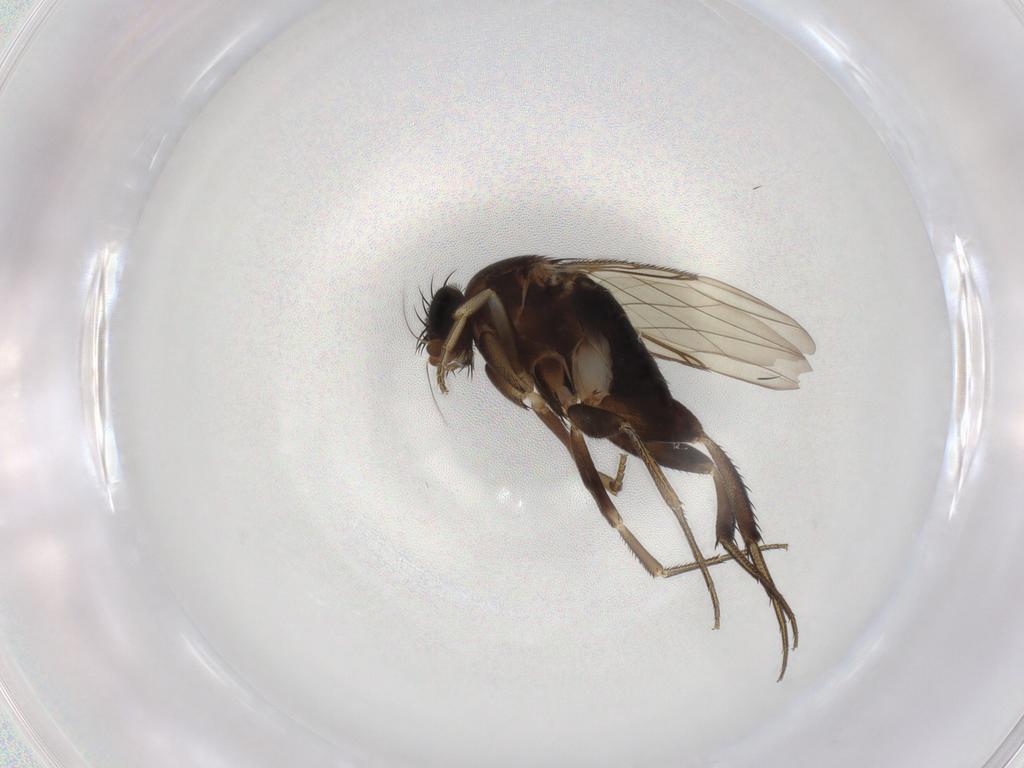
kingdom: Animalia
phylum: Arthropoda
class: Insecta
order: Diptera
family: Phoridae
